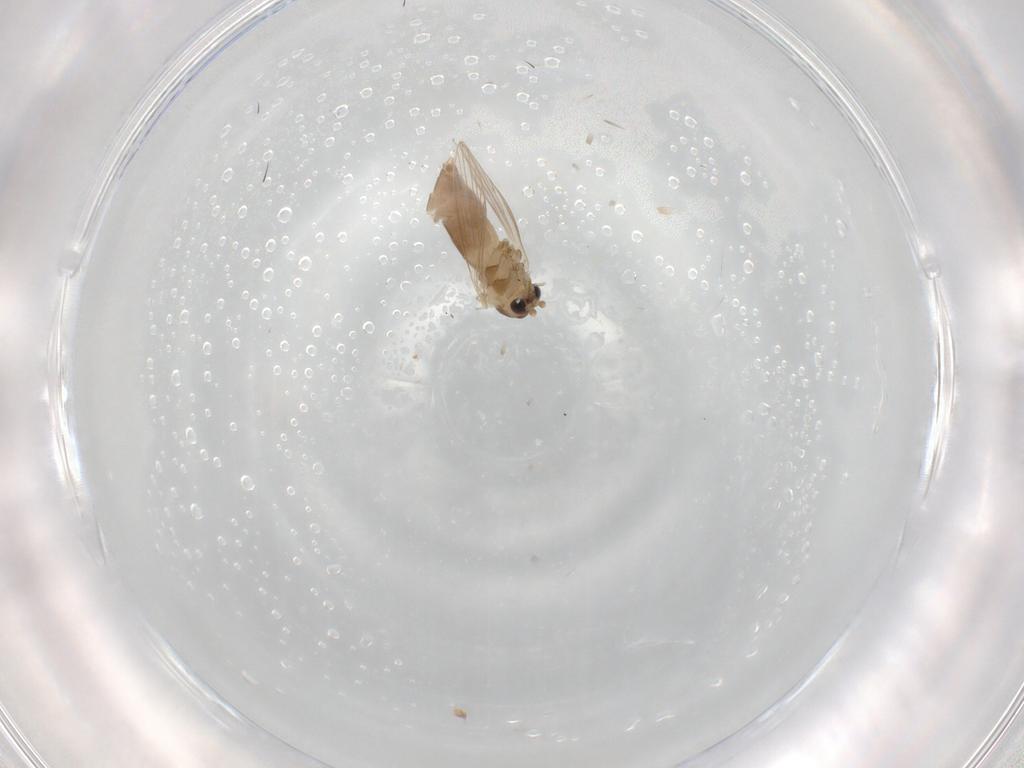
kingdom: Animalia
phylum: Arthropoda
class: Insecta
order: Diptera
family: Psychodidae
